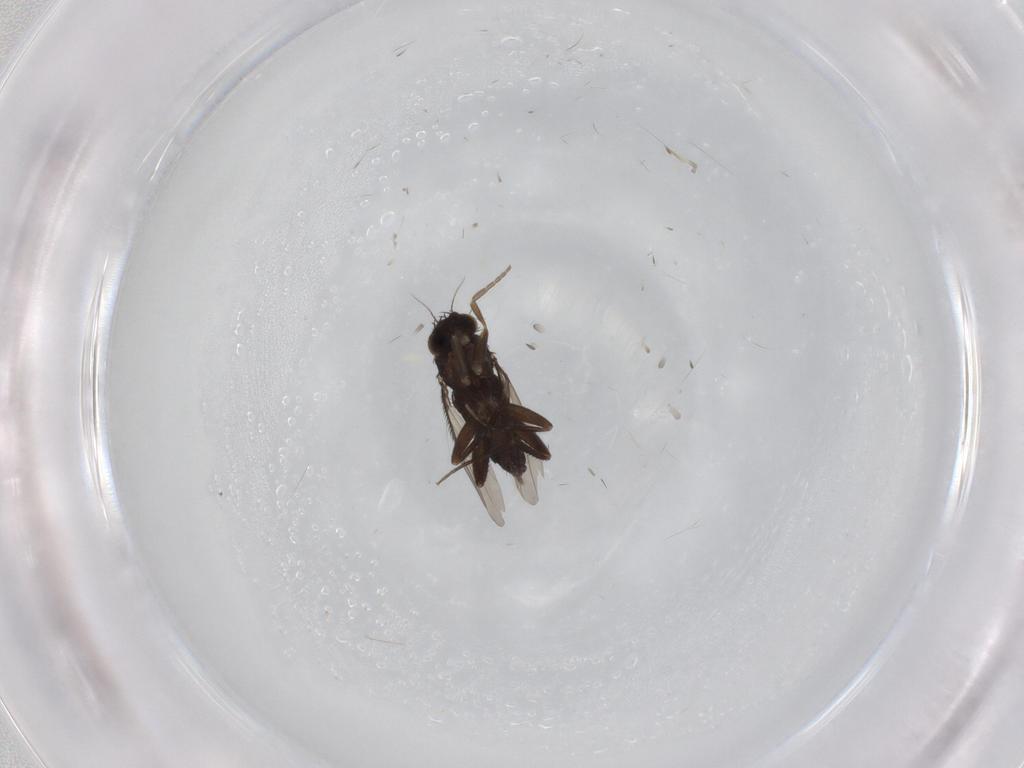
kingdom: Animalia
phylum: Arthropoda
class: Insecta
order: Diptera
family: Phoridae
